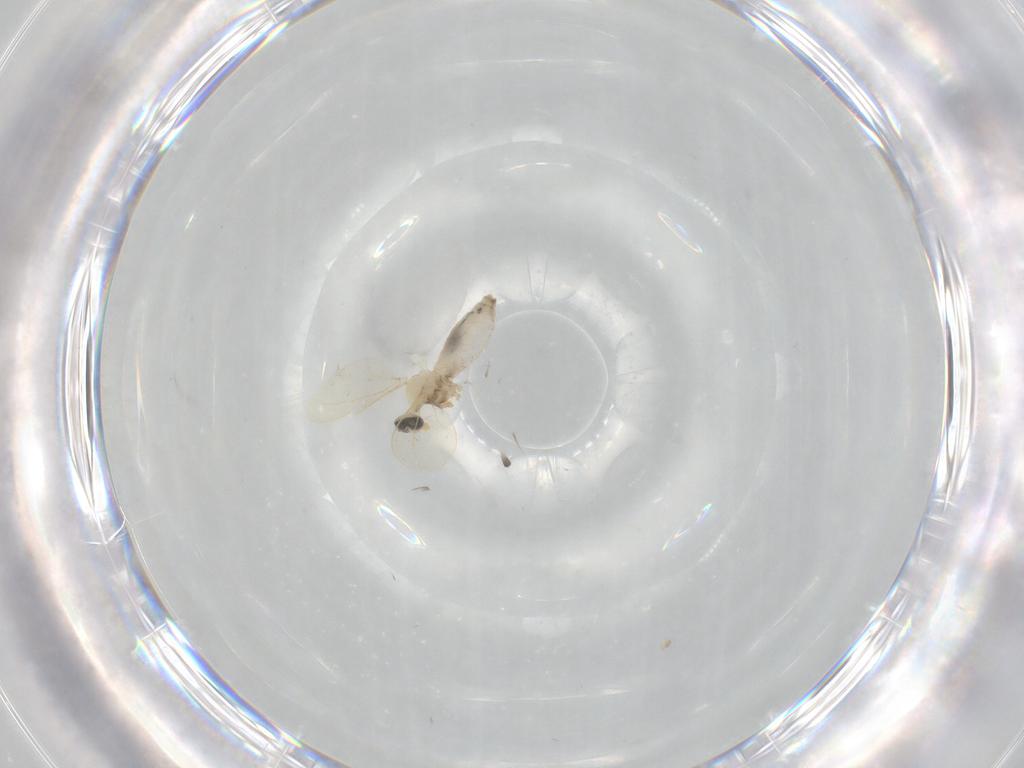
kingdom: Animalia
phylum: Arthropoda
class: Insecta
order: Diptera
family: Cecidomyiidae
